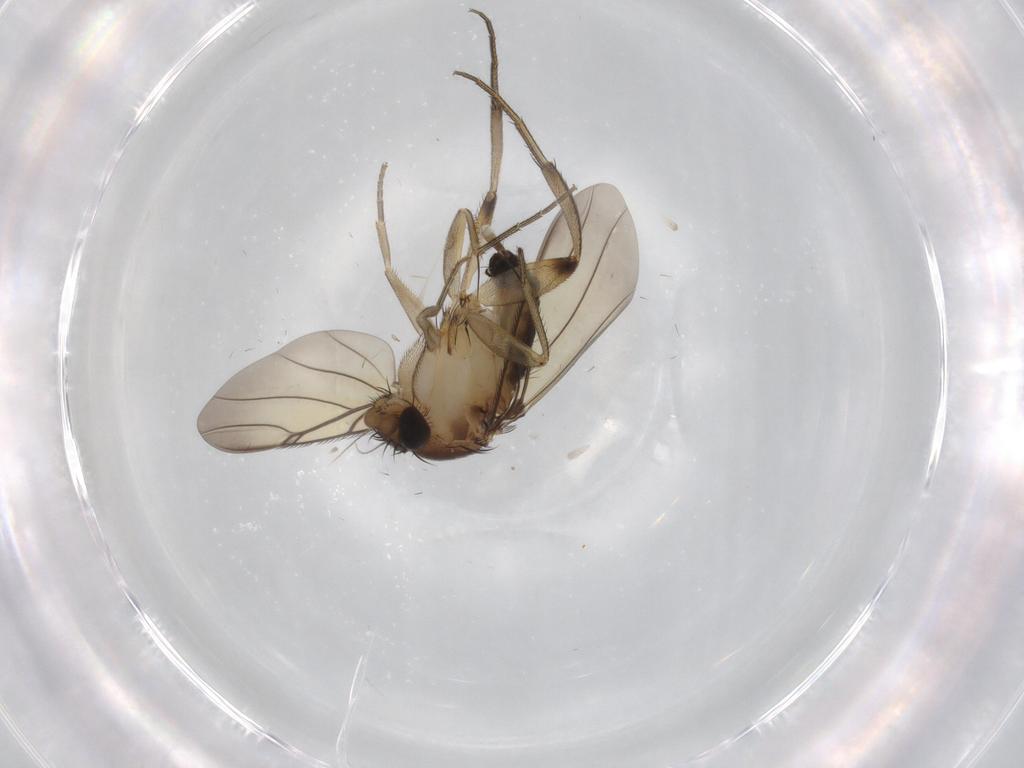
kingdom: Animalia
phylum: Arthropoda
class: Insecta
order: Diptera
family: Phoridae
